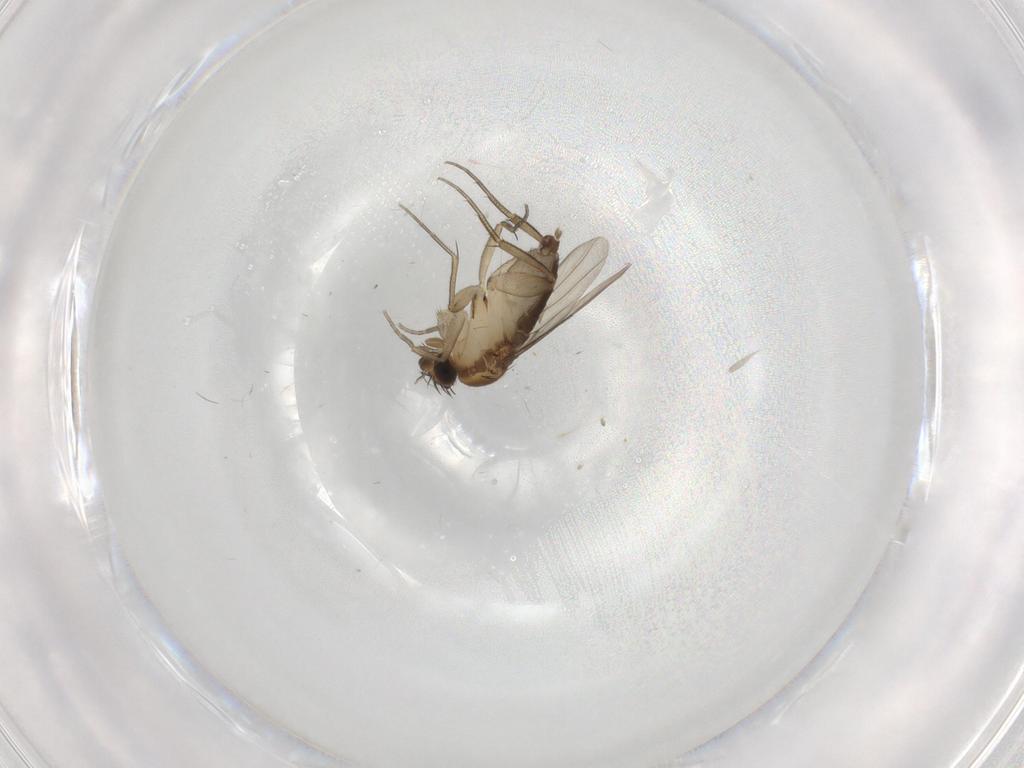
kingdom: Animalia
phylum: Arthropoda
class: Insecta
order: Diptera
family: Phoridae
